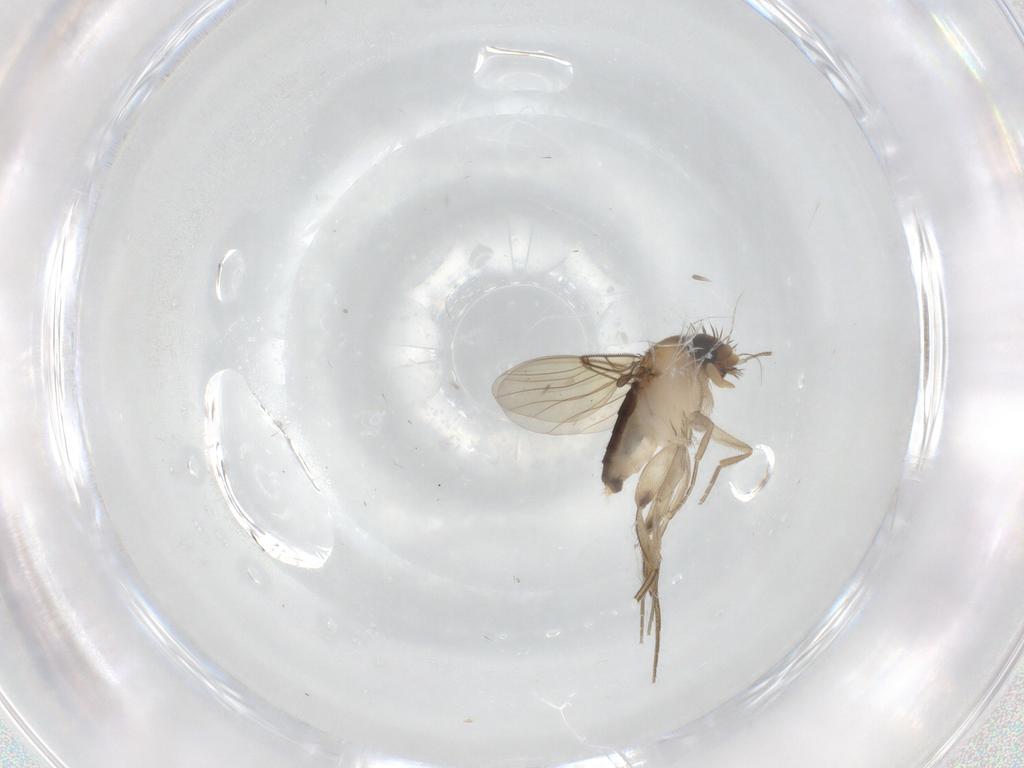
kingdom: Animalia
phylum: Arthropoda
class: Insecta
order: Diptera
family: Phoridae
